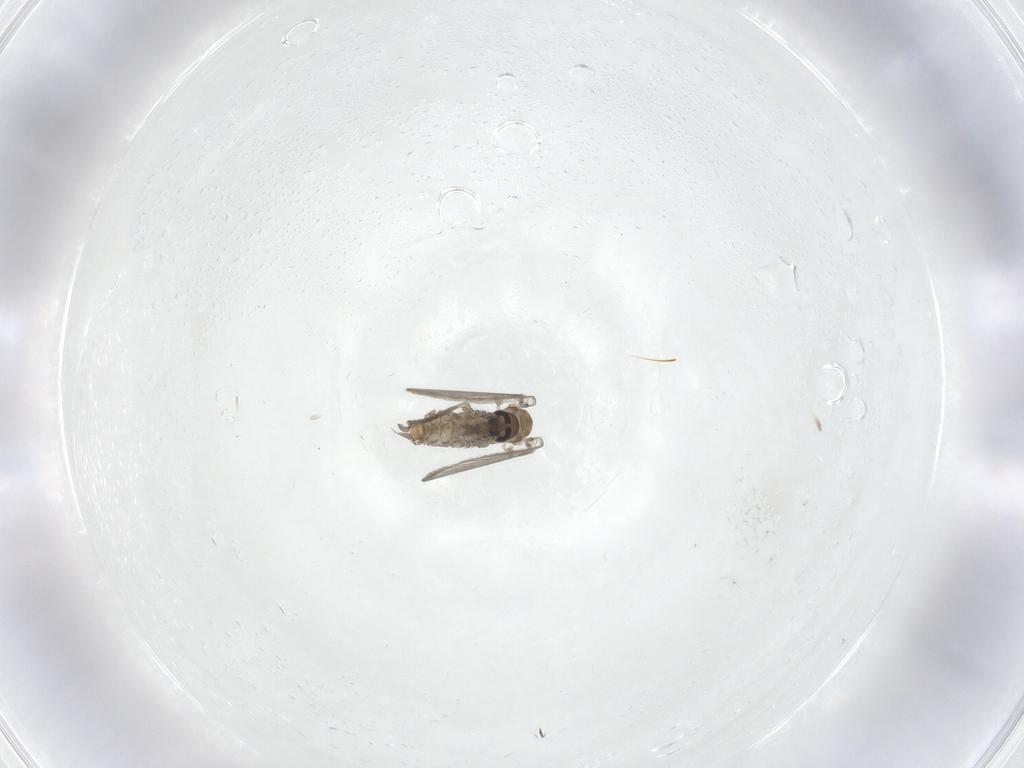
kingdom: Animalia
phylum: Arthropoda
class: Insecta
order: Diptera
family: Psychodidae
